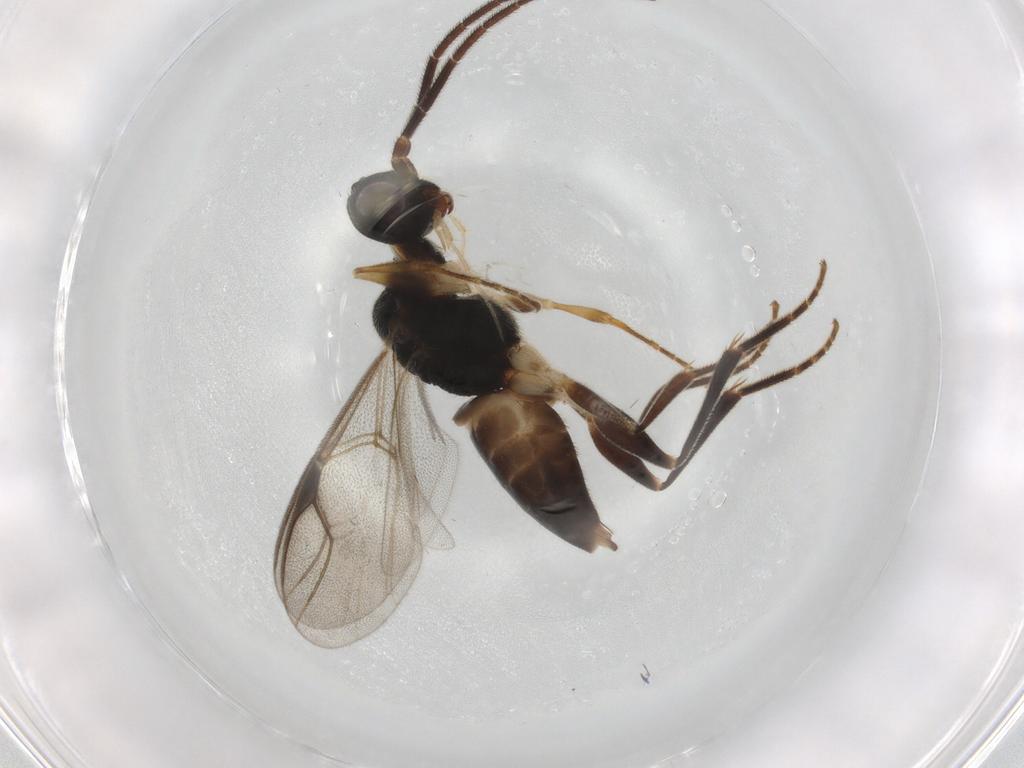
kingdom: Animalia
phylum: Arthropoda
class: Insecta
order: Hymenoptera
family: Dryinidae
